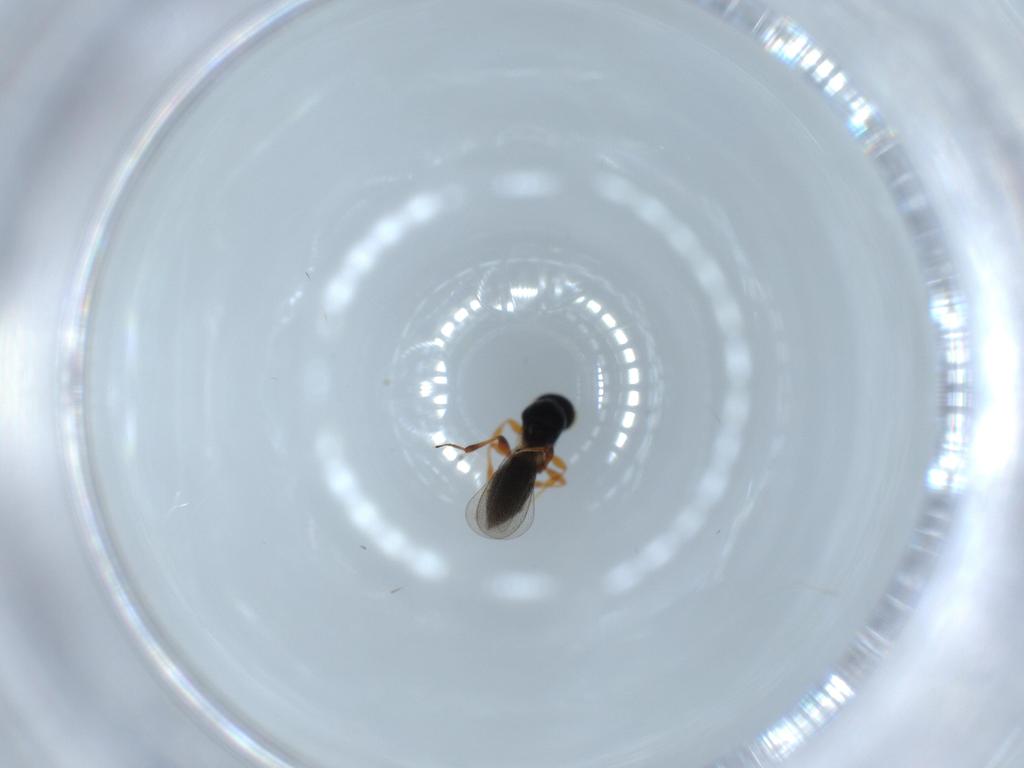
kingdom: Animalia
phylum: Arthropoda
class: Insecta
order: Hymenoptera
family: Platygastridae
